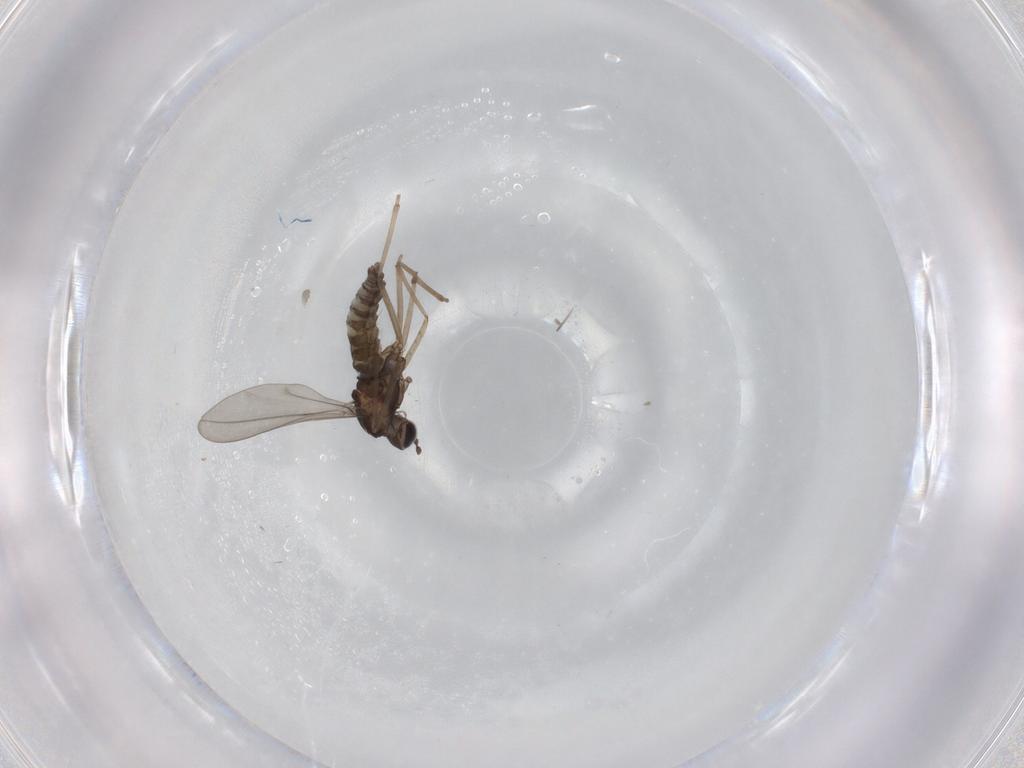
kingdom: Animalia
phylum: Arthropoda
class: Insecta
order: Diptera
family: Cecidomyiidae
